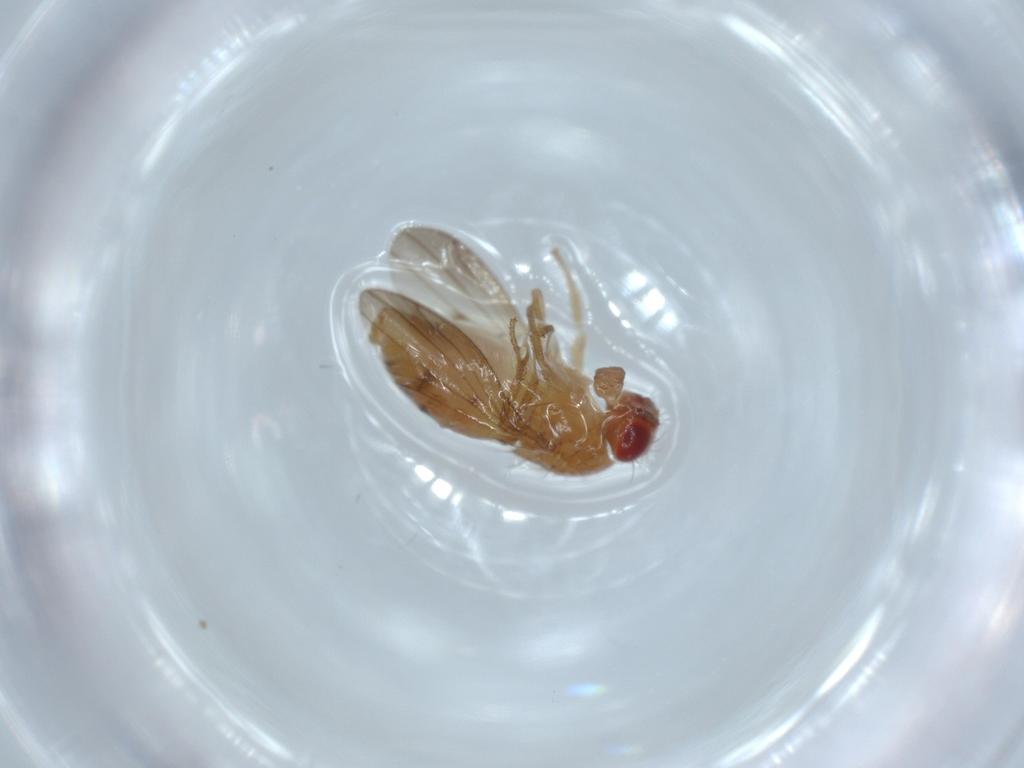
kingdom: Animalia
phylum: Arthropoda
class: Insecta
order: Diptera
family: Drosophilidae
